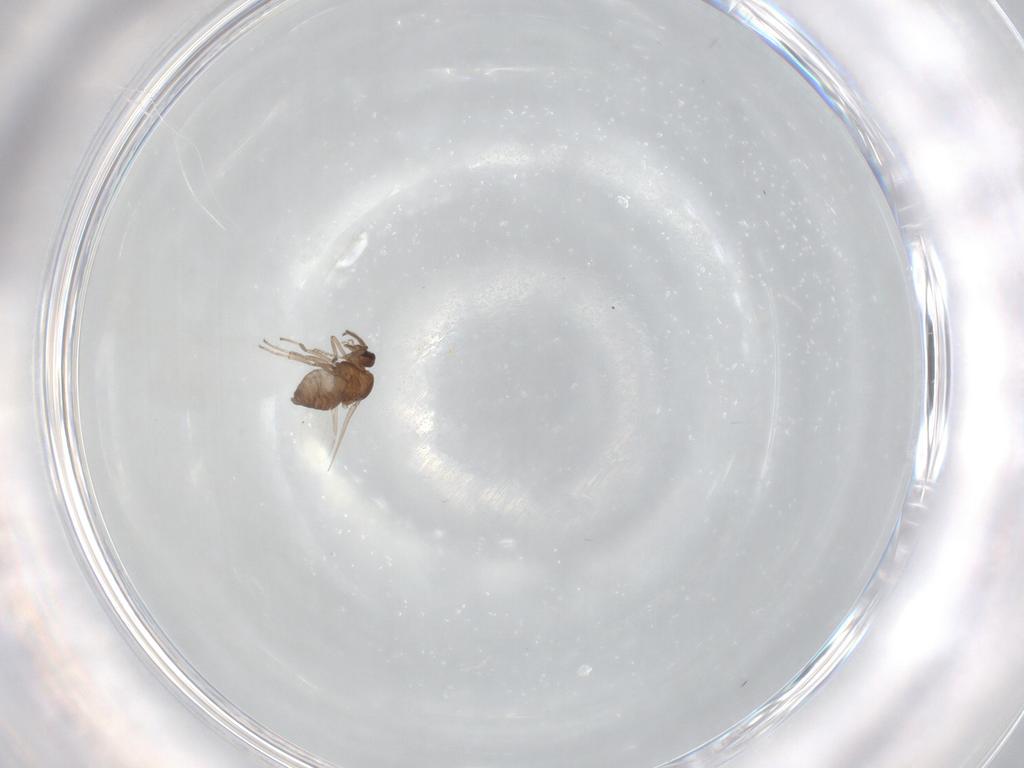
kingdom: Animalia
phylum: Arthropoda
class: Insecta
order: Diptera
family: Ceratopogonidae
